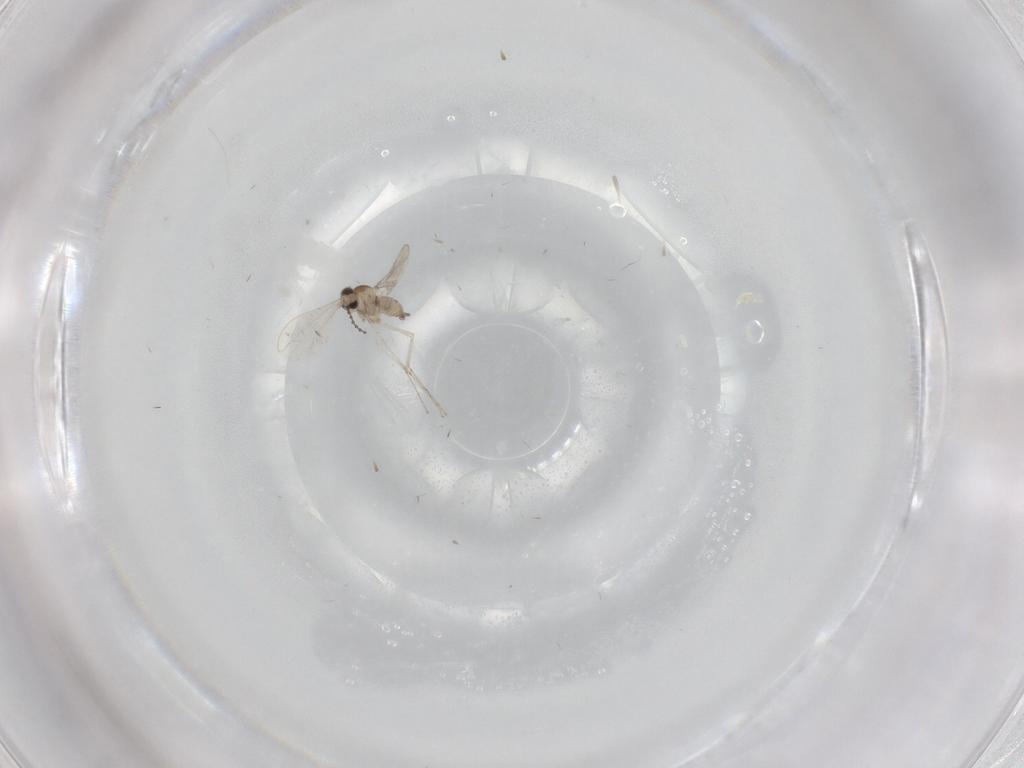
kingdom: Animalia
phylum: Arthropoda
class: Insecta
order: Diptera
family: Cecidomyiidae
